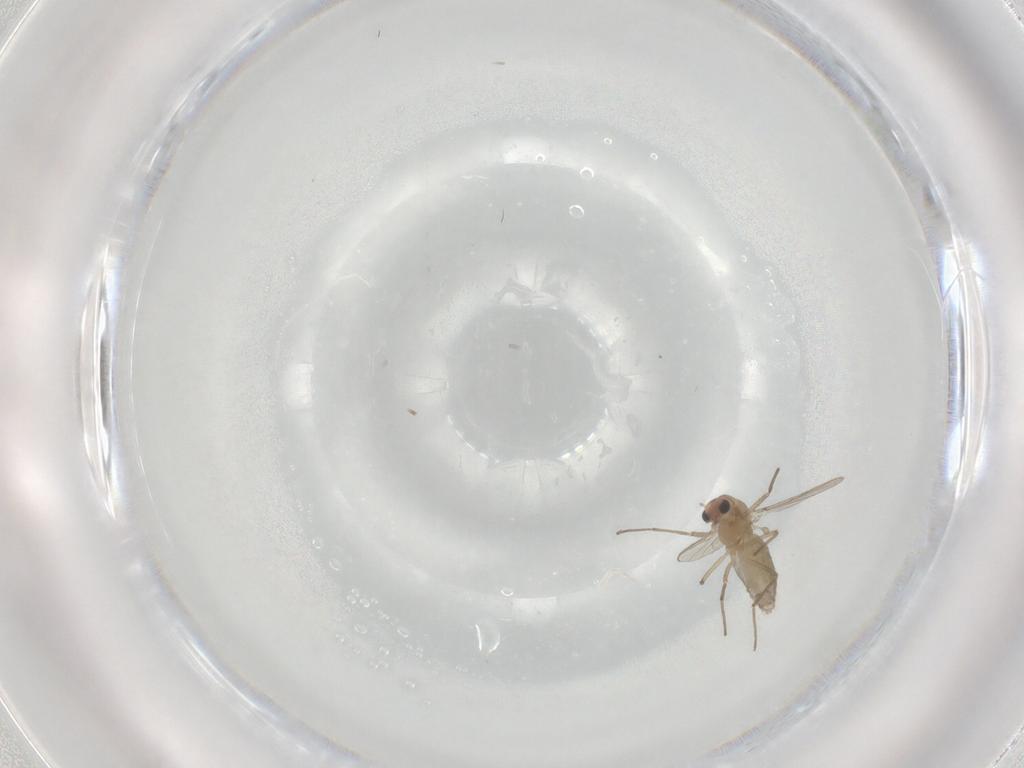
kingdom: Animalia
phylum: Arthropoda
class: Insecta
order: Diptera
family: Chironomidae
